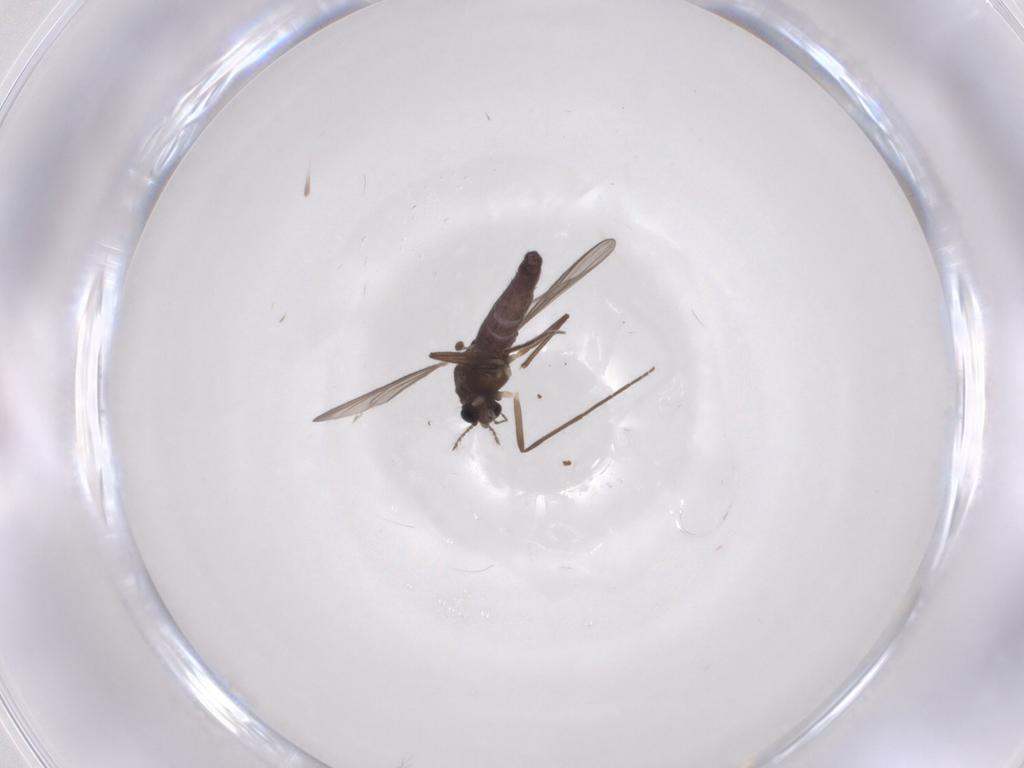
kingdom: Animalia
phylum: Arthropoda
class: Insecta
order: Diptera
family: Chironomidae
